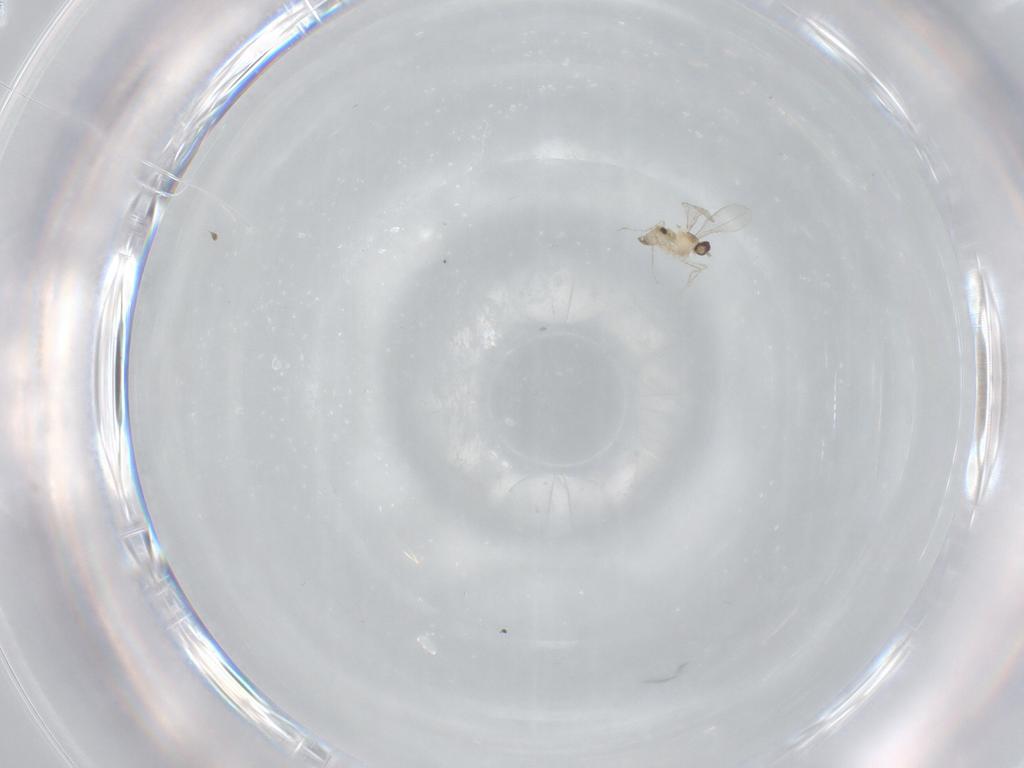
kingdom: Animalia
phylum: Arthropoda
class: Insecta
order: Diptera
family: Cecidomyiidae
